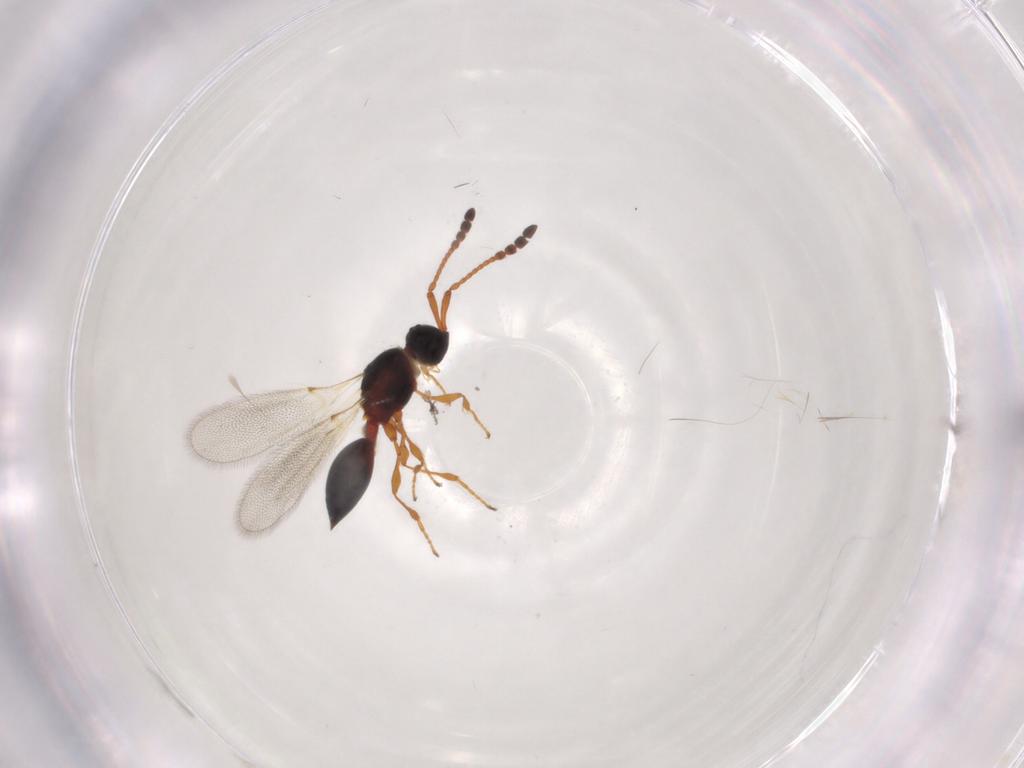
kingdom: Animalia
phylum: Arthropoda
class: Insecta
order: Hymenoptera
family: Diapriidae
